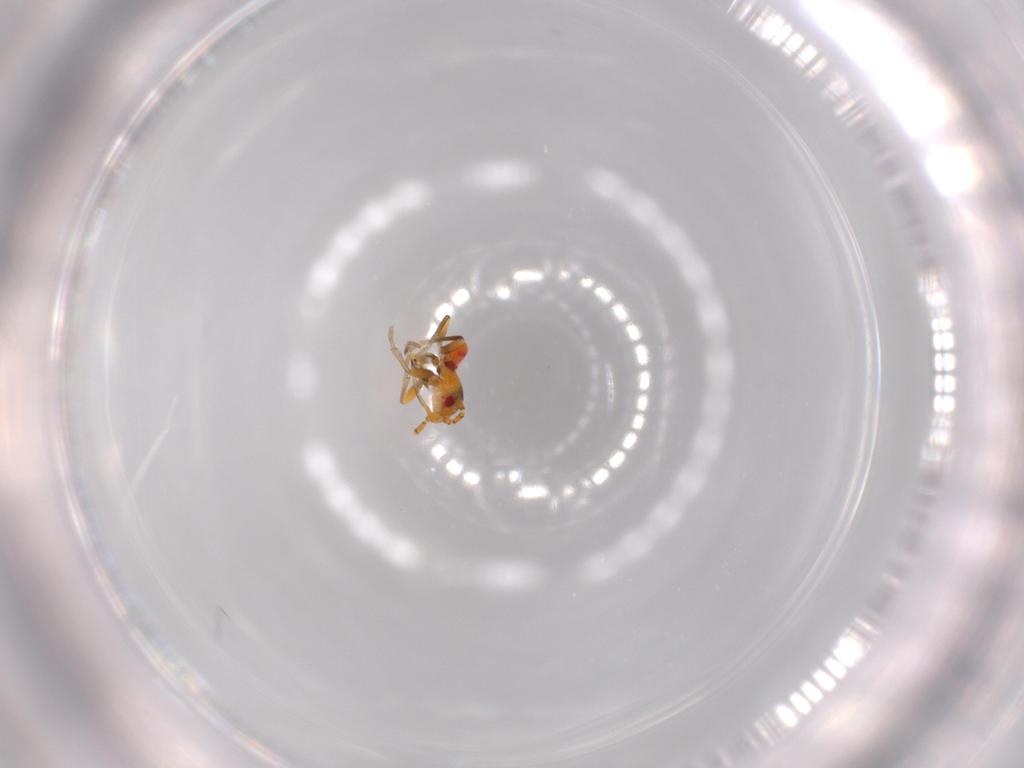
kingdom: Animalia
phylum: Arthropoda
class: Insecta
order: Hemiptera
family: Rhyparochromidae
